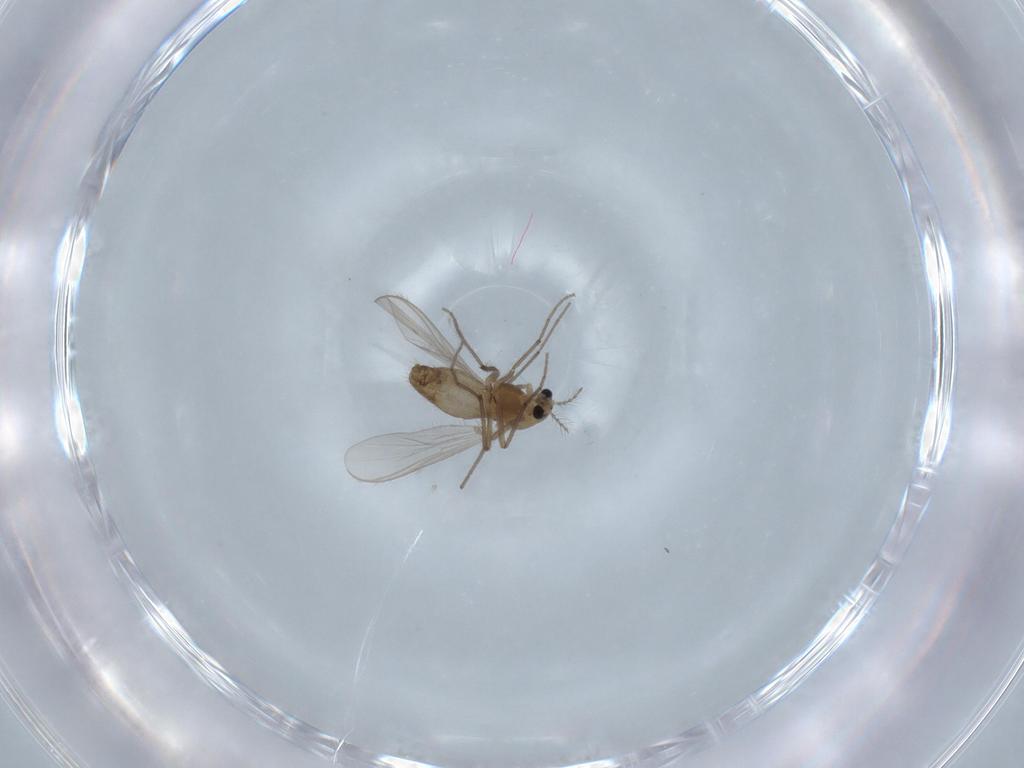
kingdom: Animalia
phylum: Arthropoda
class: Insecta
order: Diptera
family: Chironomidae
